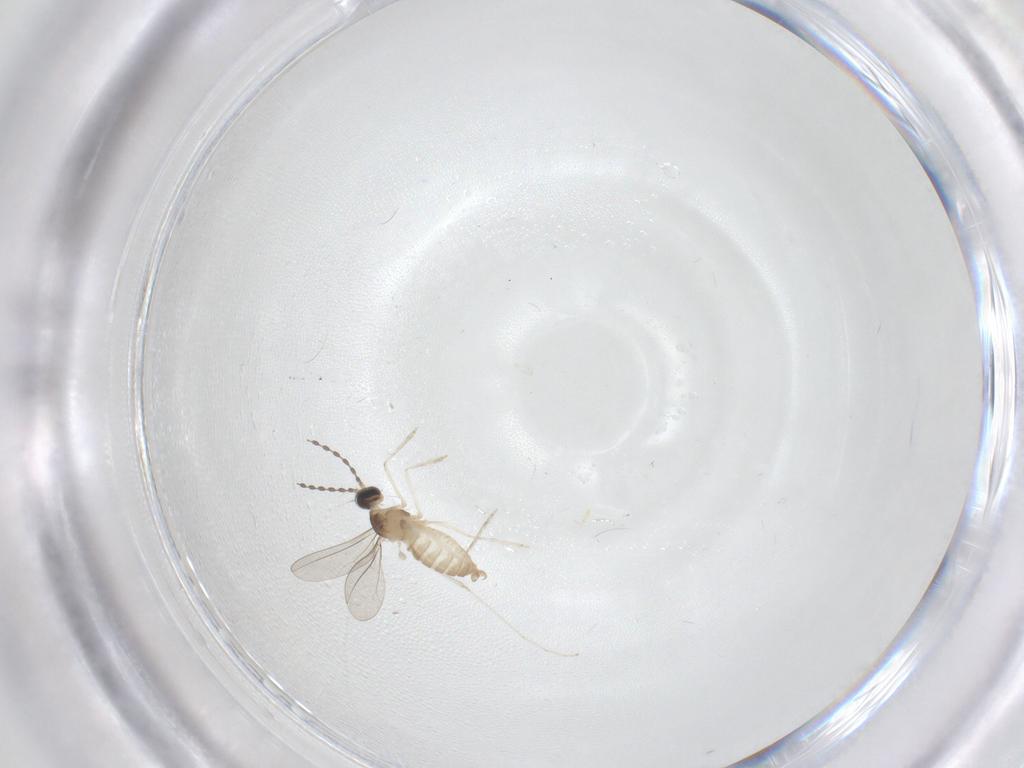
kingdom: Animalia
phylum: Arthropoda
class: Insecta
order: Diptera
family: Cecidomyiidae
